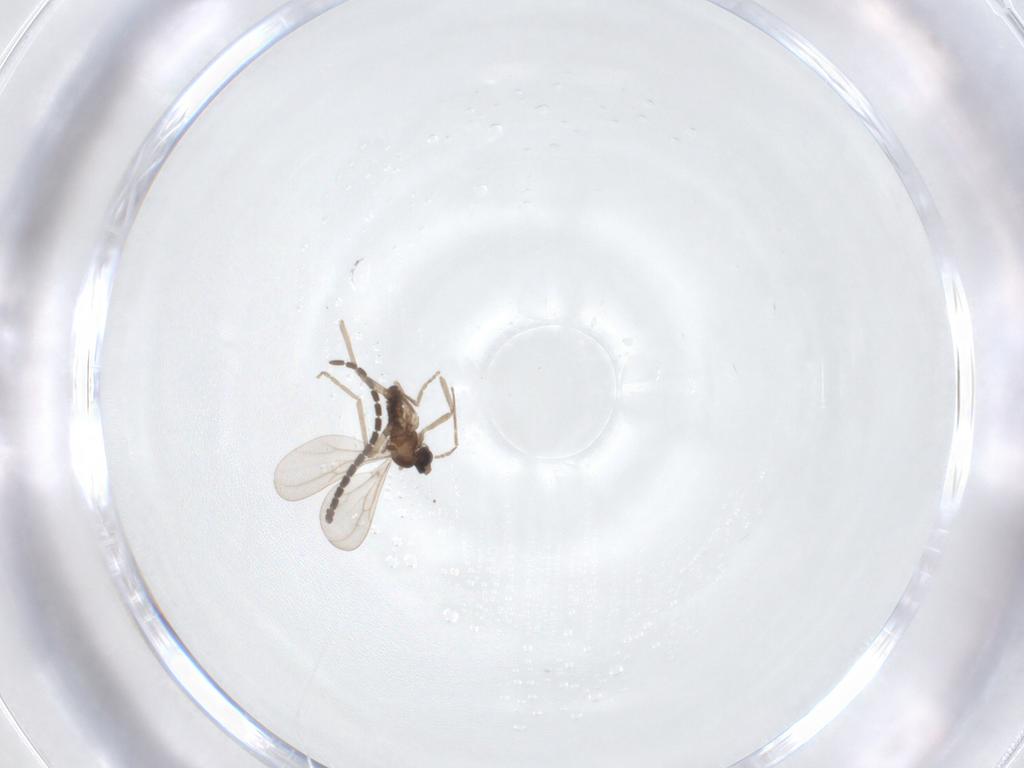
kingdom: Animalia
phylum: Arthropoda
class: Insecta
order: Diptera
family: Cecidomyiidae
